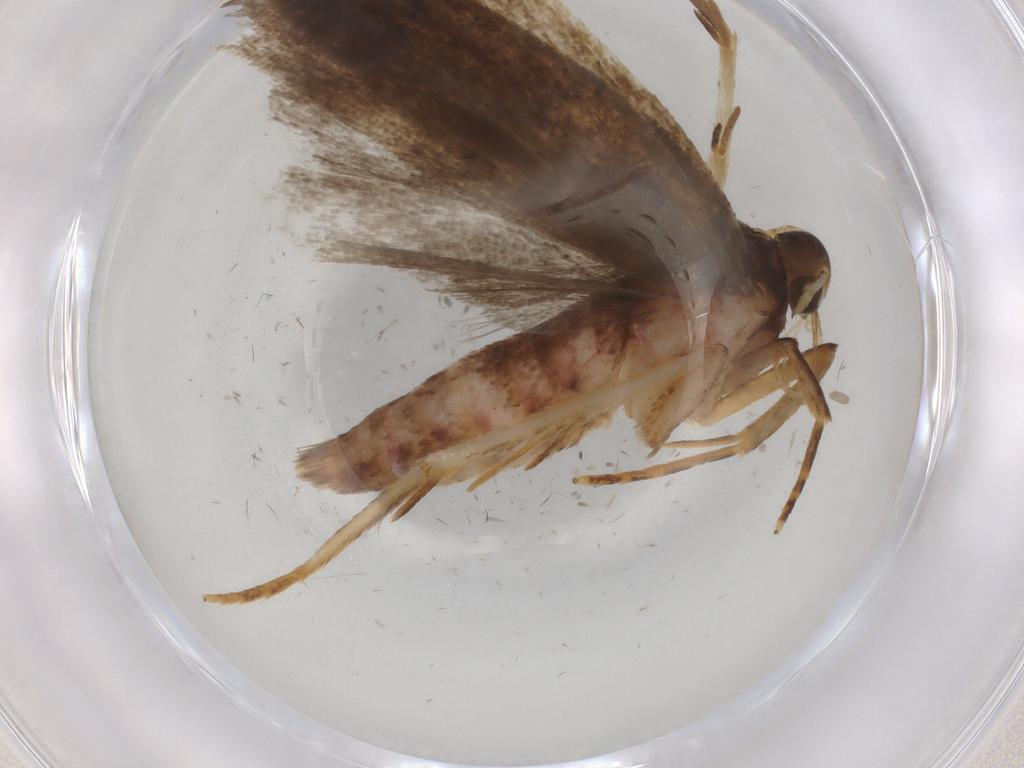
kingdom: Animalia
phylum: Arthropoda
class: Insecta
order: Lepidoptera
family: Autostichidae
